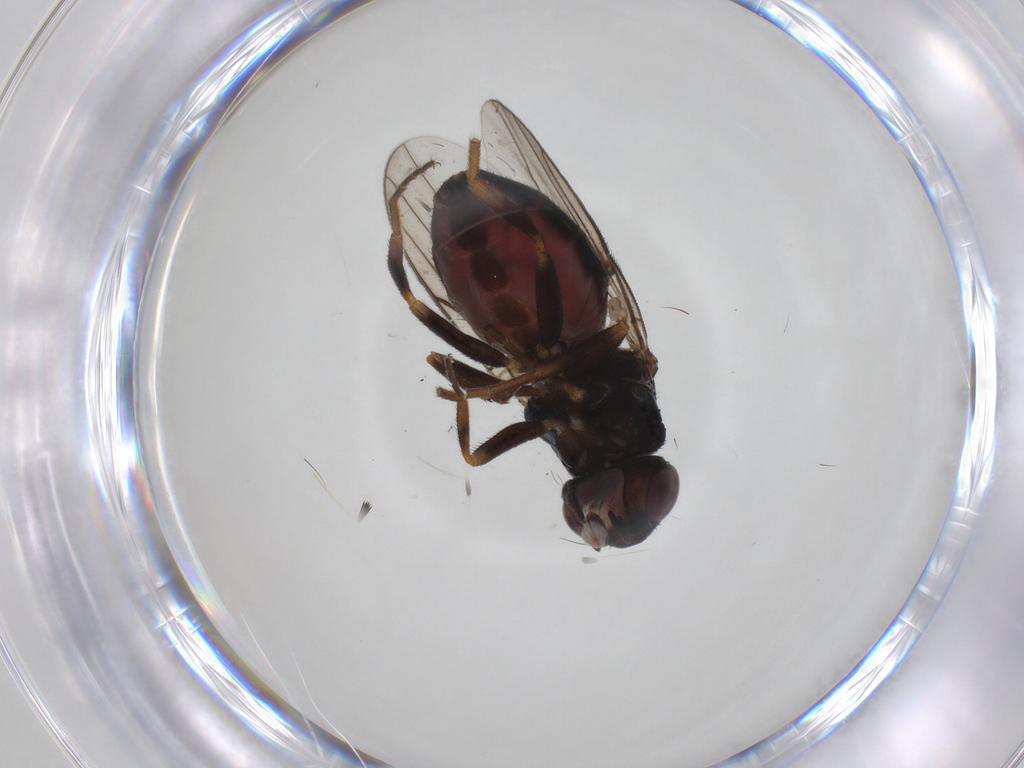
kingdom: Animalia
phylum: Arthropoda
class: Insecta
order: Diptera
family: Chloropidae
